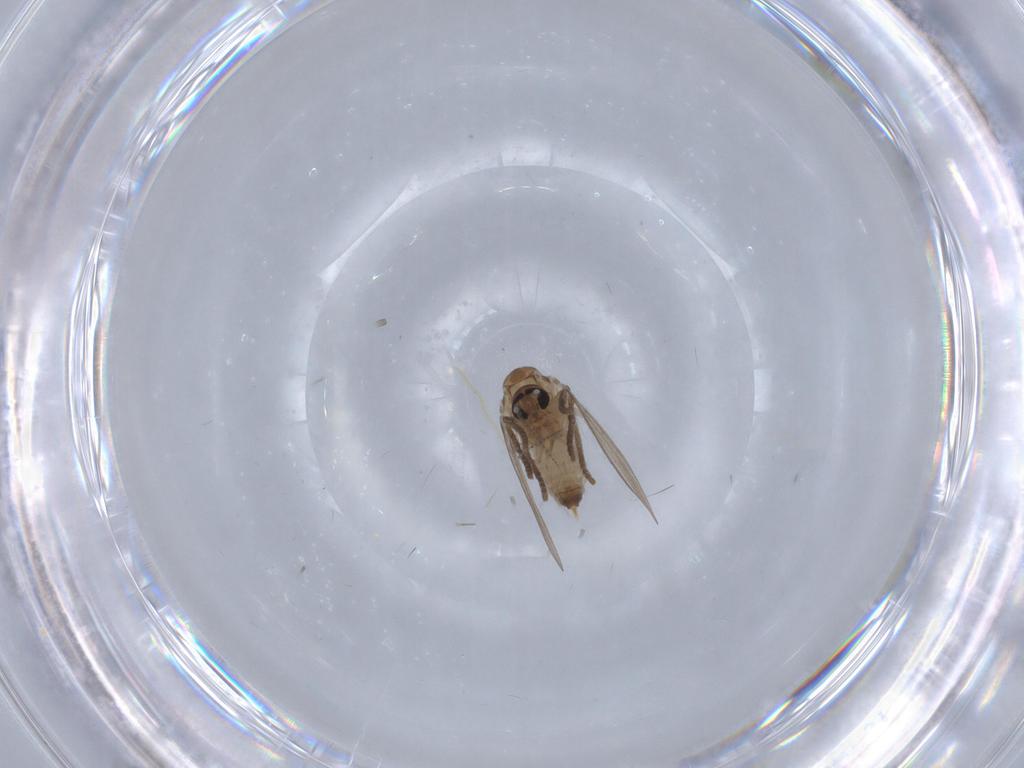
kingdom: Animalia
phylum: Arthropoda
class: Insecta
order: Diptera
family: Psychodidae
